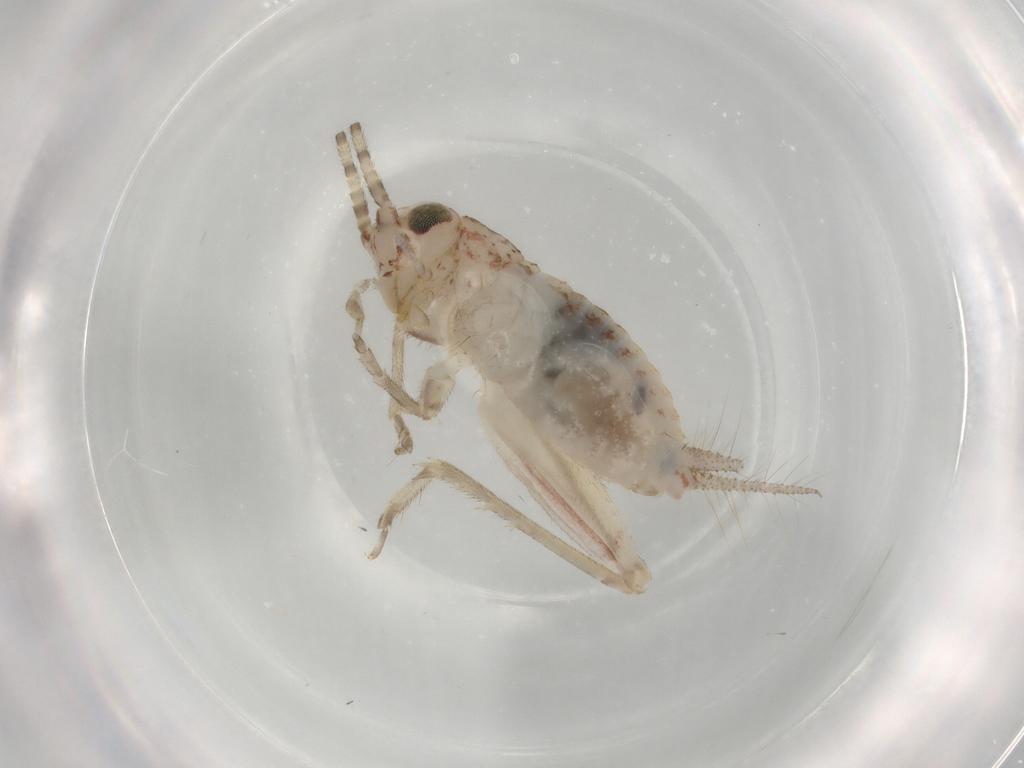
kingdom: Animalia
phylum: Arthropoda
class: Insecta
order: Orthoptera
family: Trigonidiidae
